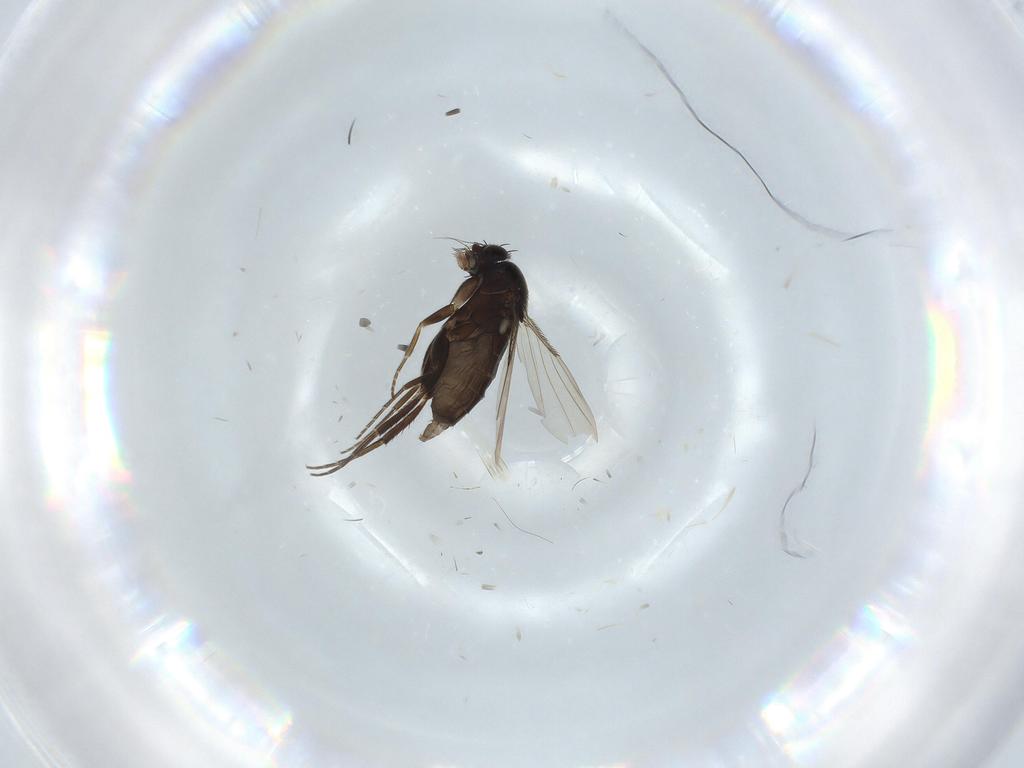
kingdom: Animalia
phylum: Arthropoda
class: Insecta
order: Diptera
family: Phoridae
